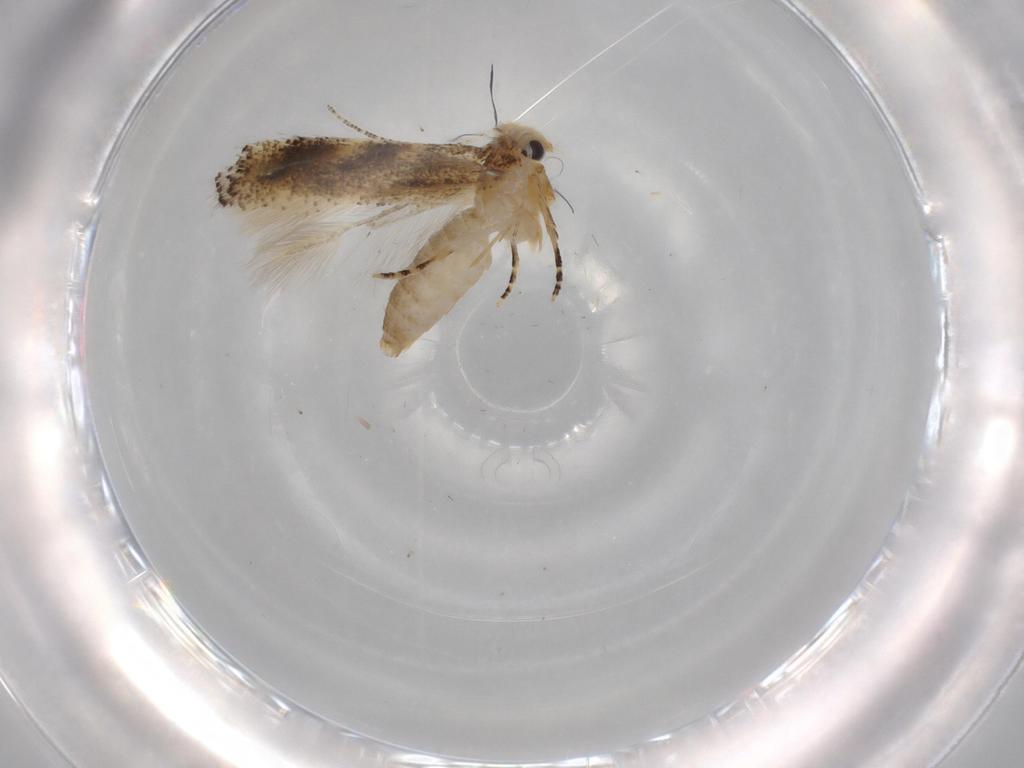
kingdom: Animalia
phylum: Arthropoda
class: Insecta
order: Lepidoptera
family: Bucculatricidae
